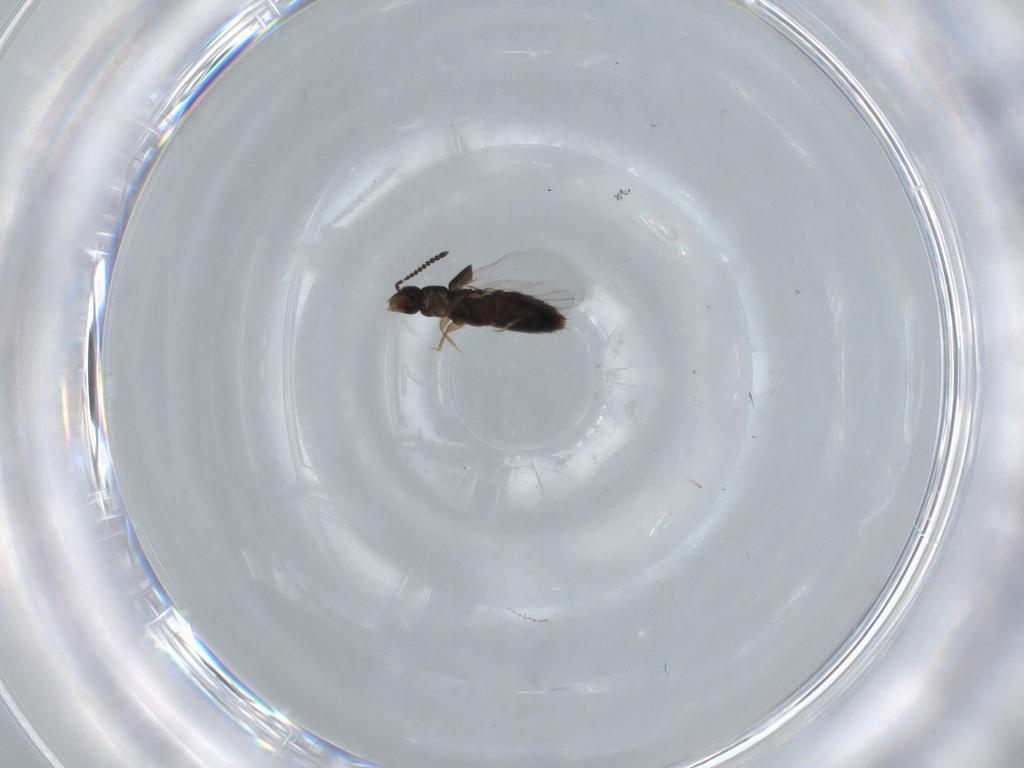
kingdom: Animalia
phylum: Arthropoda
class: Insecta
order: Coleoptera
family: Staphylinidae
